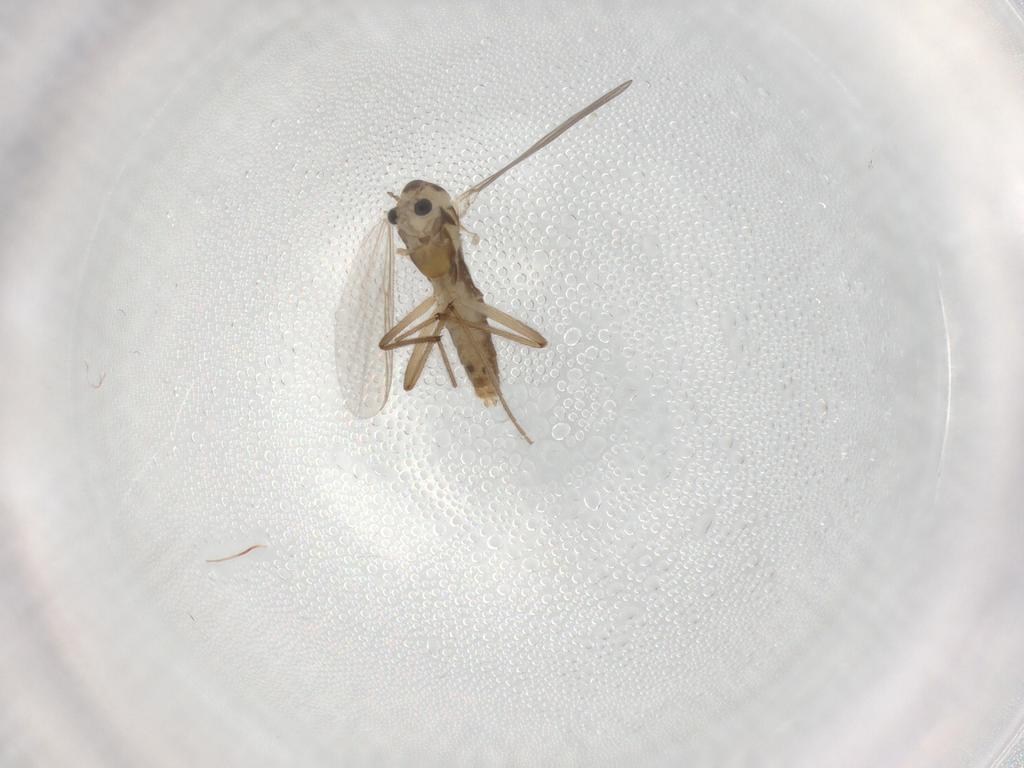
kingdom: Animalia
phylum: Arthropoda
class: Insecta
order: Diptera
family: Chironomidae
